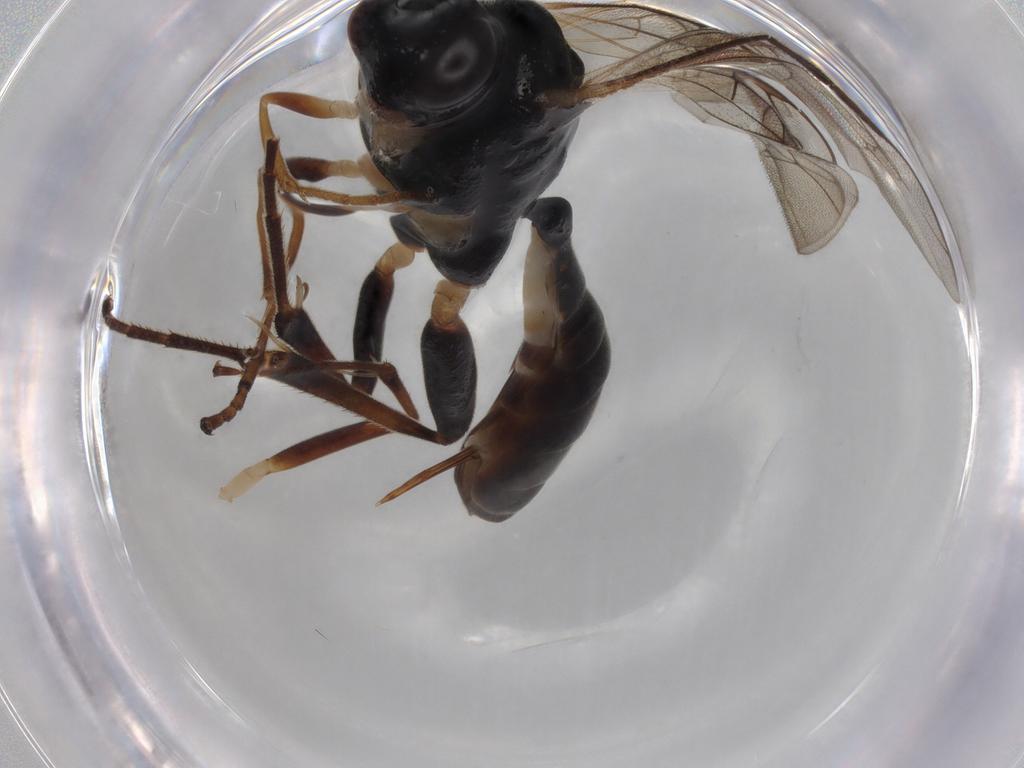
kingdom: Animalia
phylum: Arthropoda
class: Insecta
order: Hymenoptera
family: Ichneumonidae
